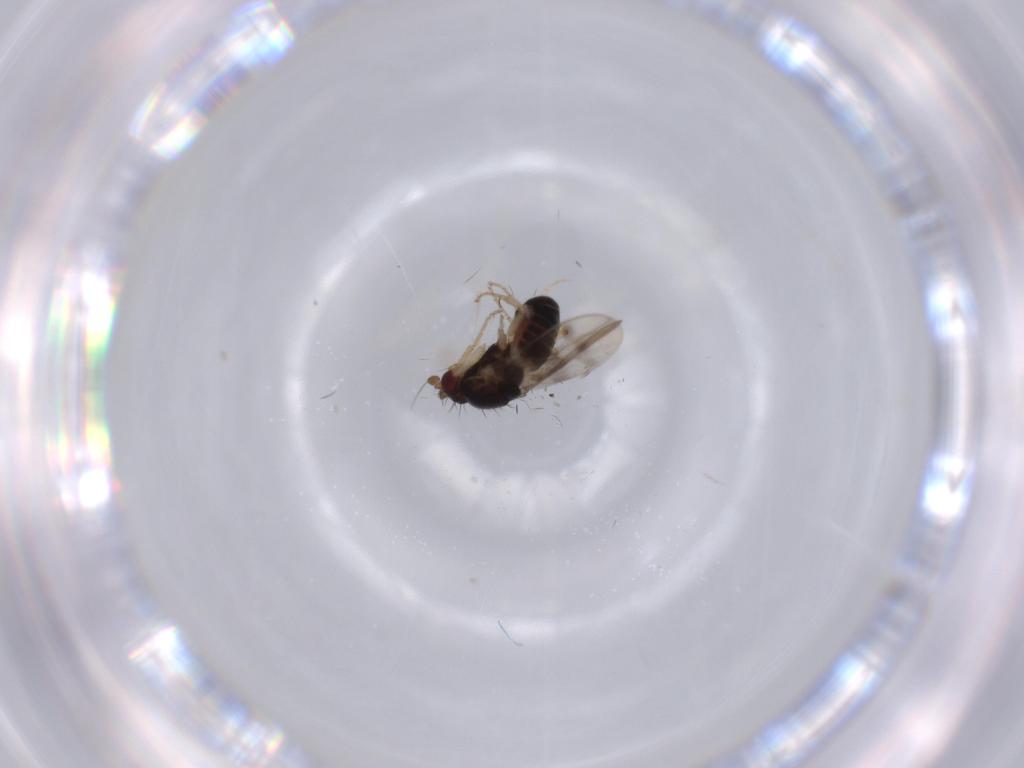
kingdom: Animalia
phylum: Arthropoda
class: Insecta
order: Diptera
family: Sphaeroceridae
